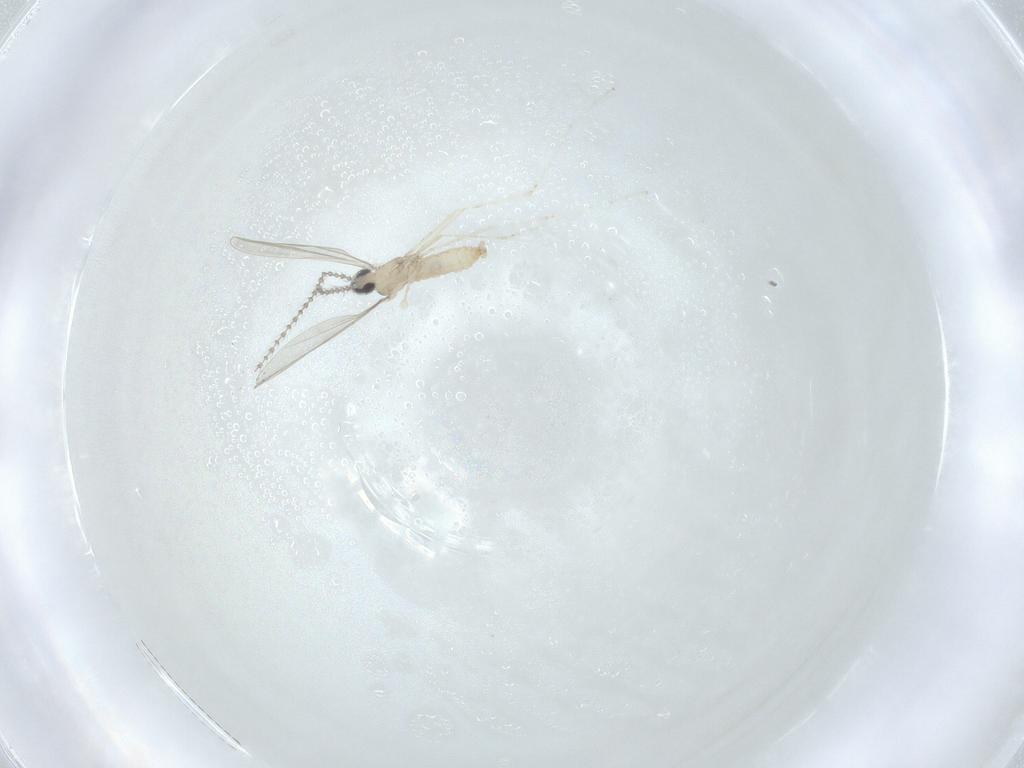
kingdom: Animalia
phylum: Arthropoda
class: Insecta
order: Diptera
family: Cecidomyiidae
